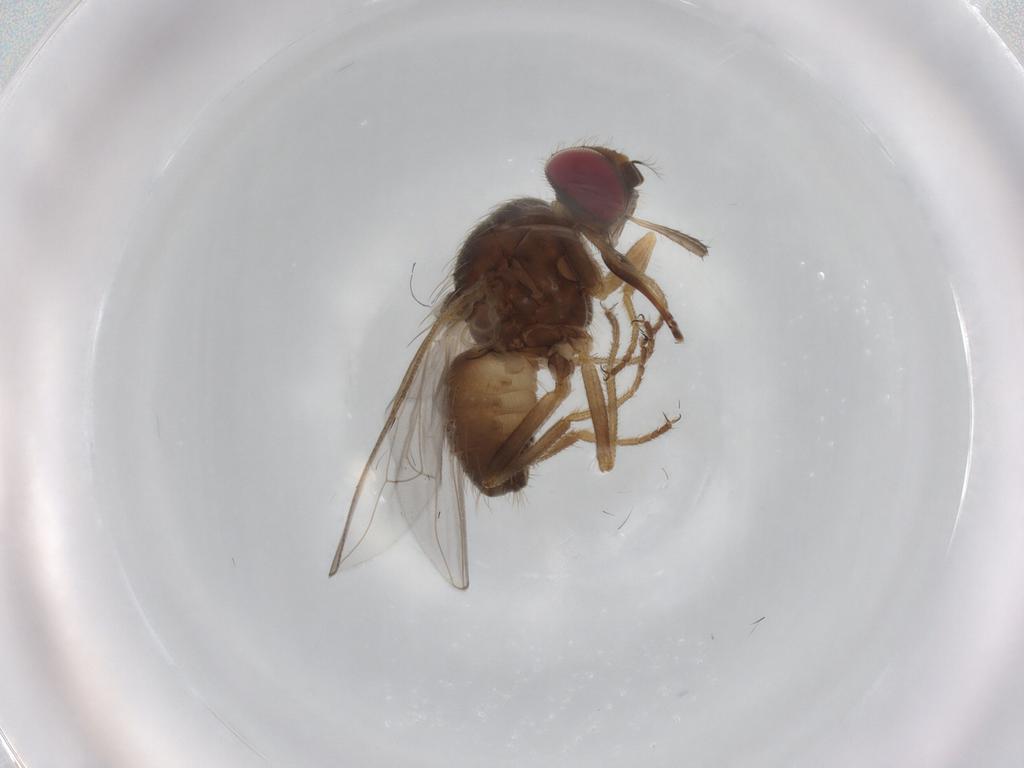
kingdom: Animalia
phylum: Arthropoda
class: Insecta
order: Diptera
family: Muscidae
